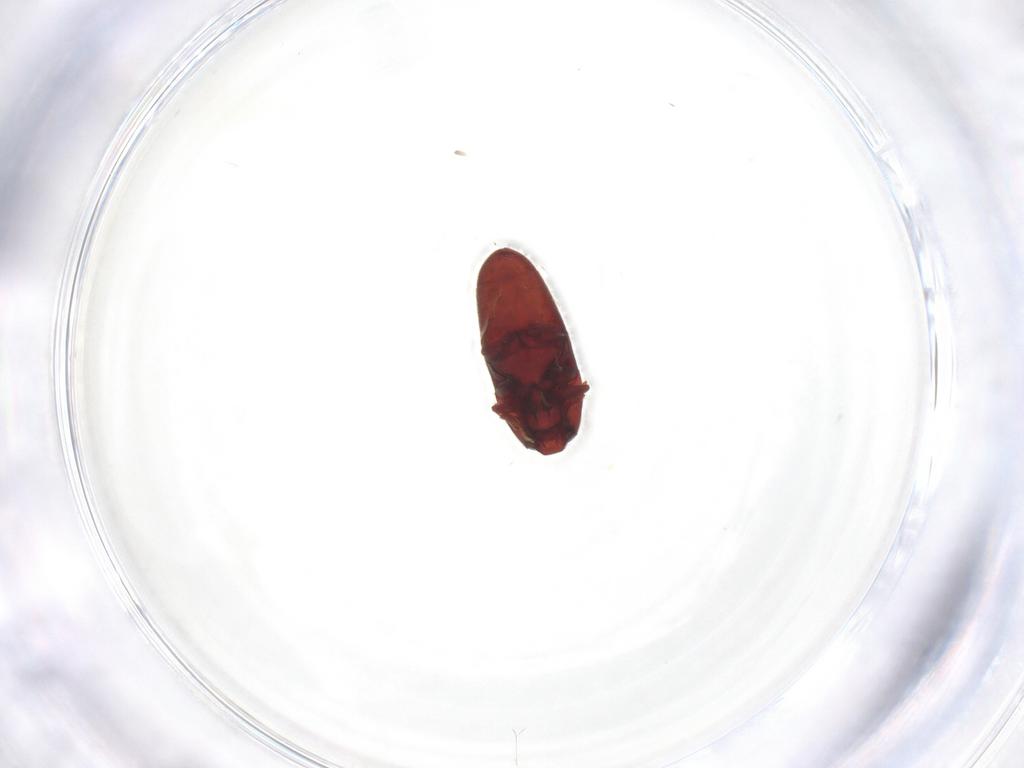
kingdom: Animalia
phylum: Arthropoda
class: Insecta
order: Coleoptera
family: Throscidae
